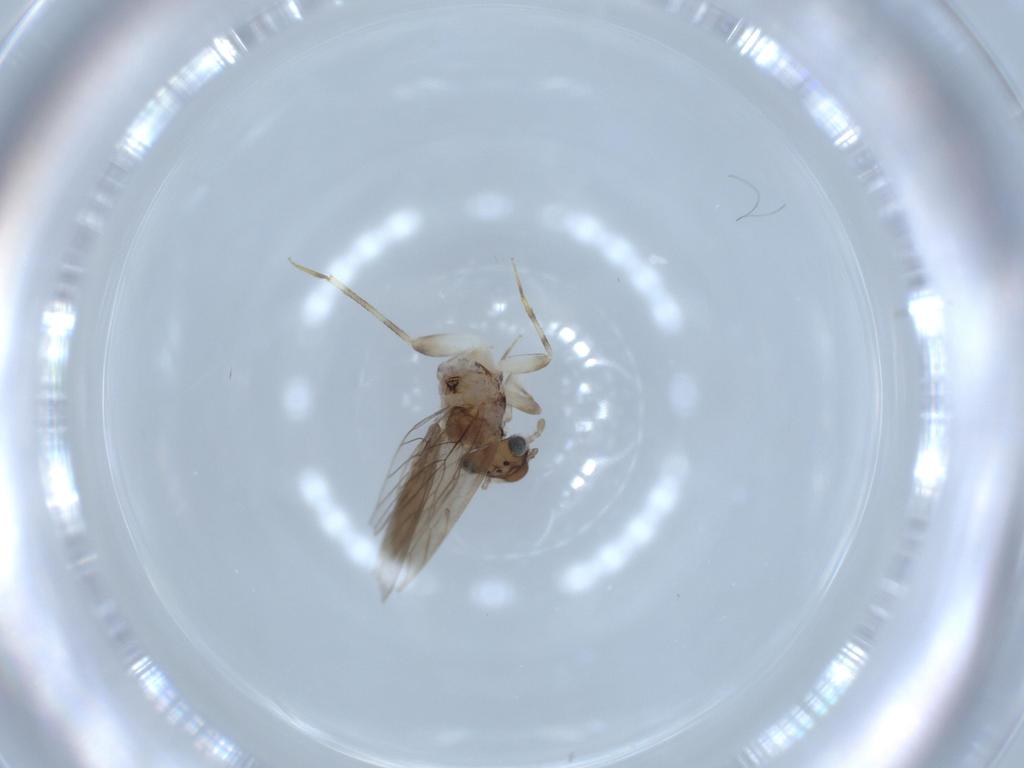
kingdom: Animalia
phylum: Arthropoda
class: Insecta
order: Psocodea
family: Lepidopsocidae
